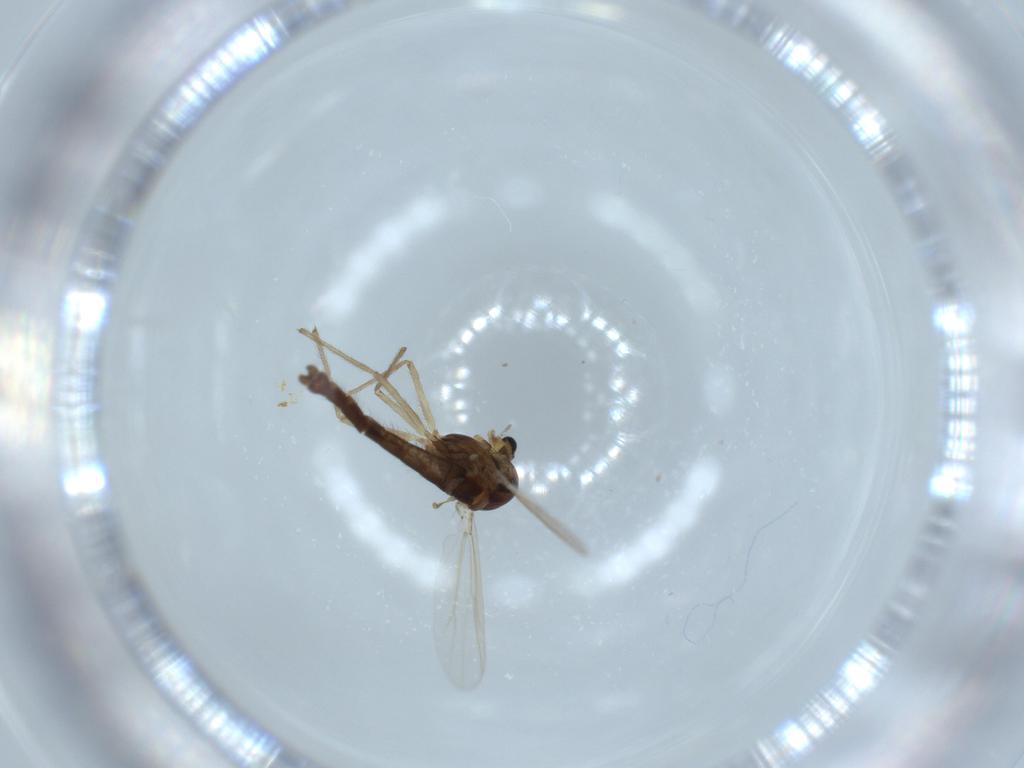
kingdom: Animalia
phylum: Arthropoda
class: Insecta
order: Diptera
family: Chironomidae
